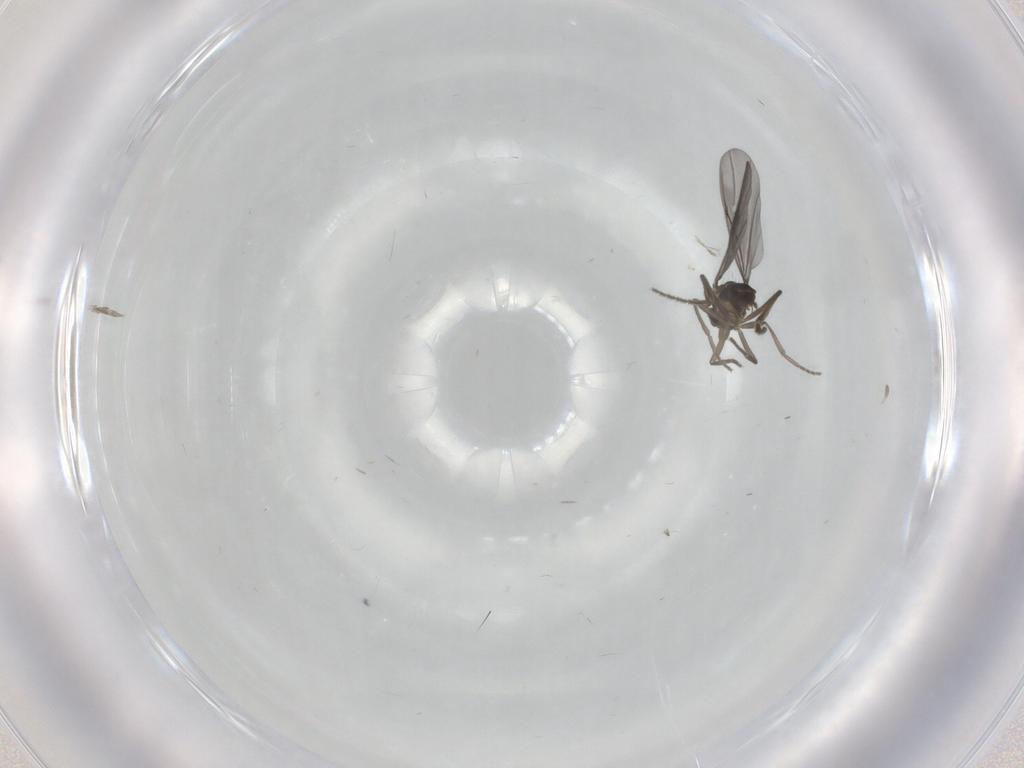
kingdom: Animalia
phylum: Arthropoda
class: Insecta
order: Diptera
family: Phoridae
